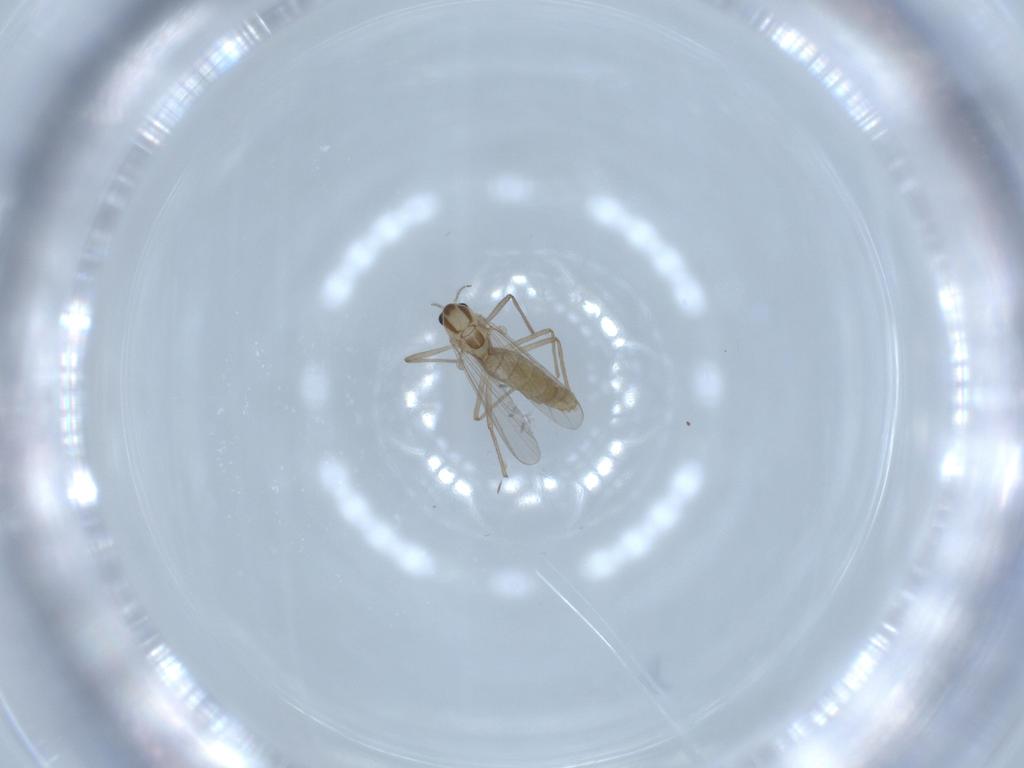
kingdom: Animalia
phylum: Arthropoda
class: Insecta
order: Diptera
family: Chironomidae
